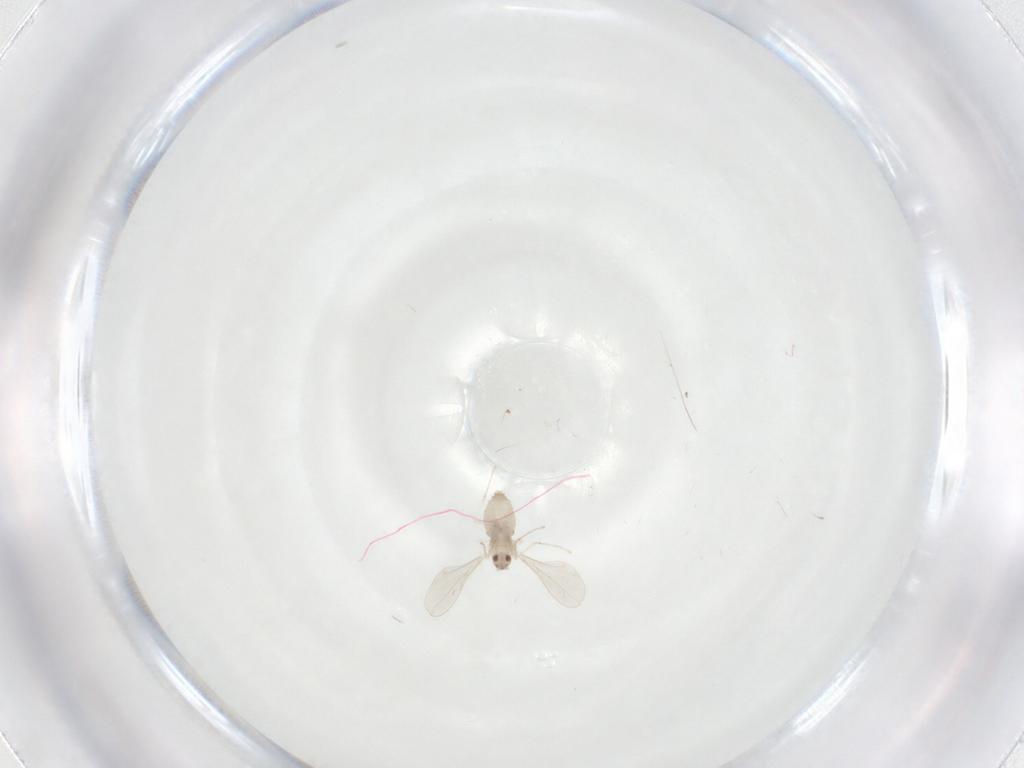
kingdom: Animalia
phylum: Arthropoda
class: Insecta
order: Diptera
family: Cecidomyiidae
